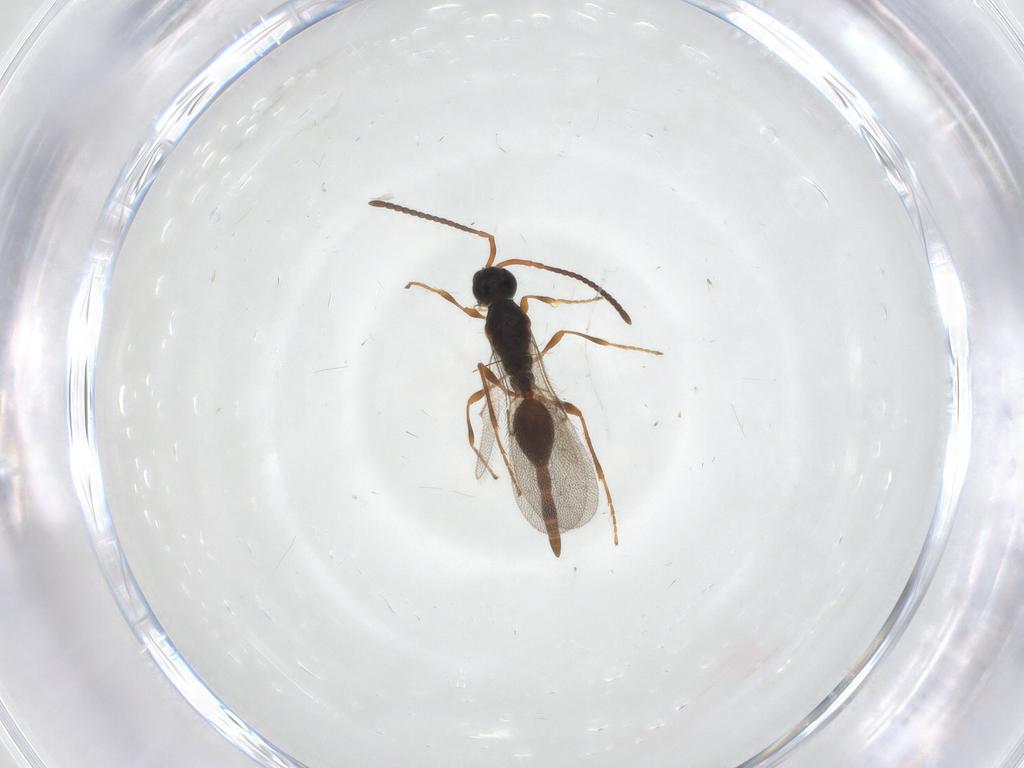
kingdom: Animalia
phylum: Arthropoda
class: Insecta
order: Hymenoptera
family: Diapriidae
